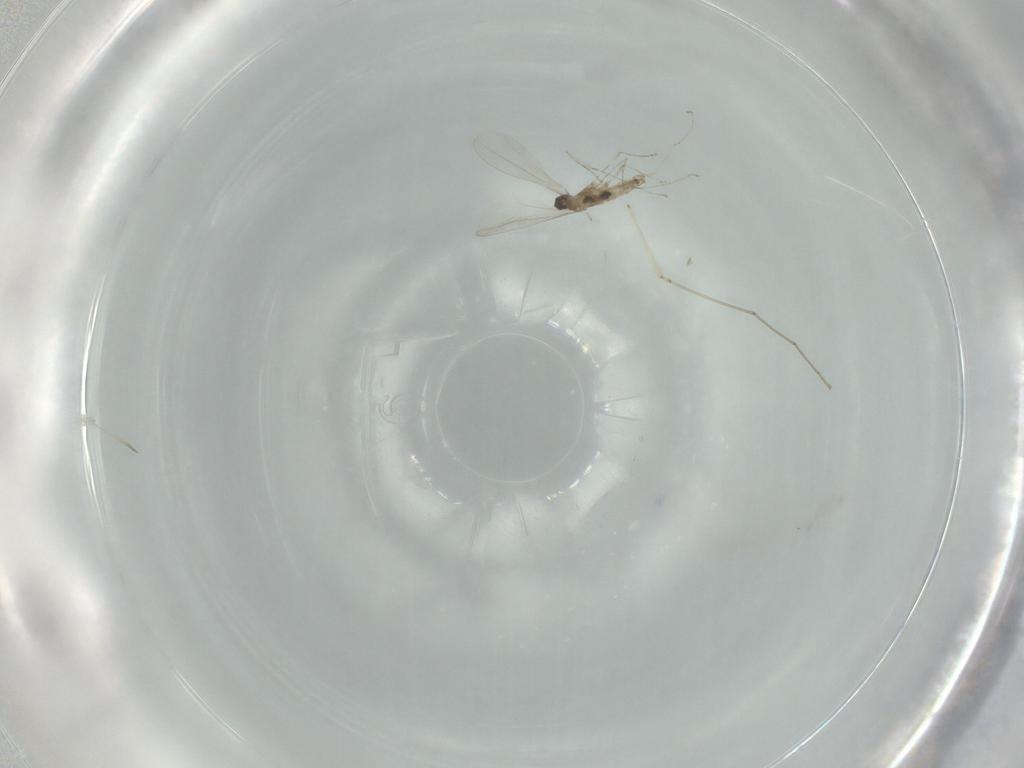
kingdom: Animalia
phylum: Arthropoda
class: Insecta
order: Diptera
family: Cecidomyiidae
